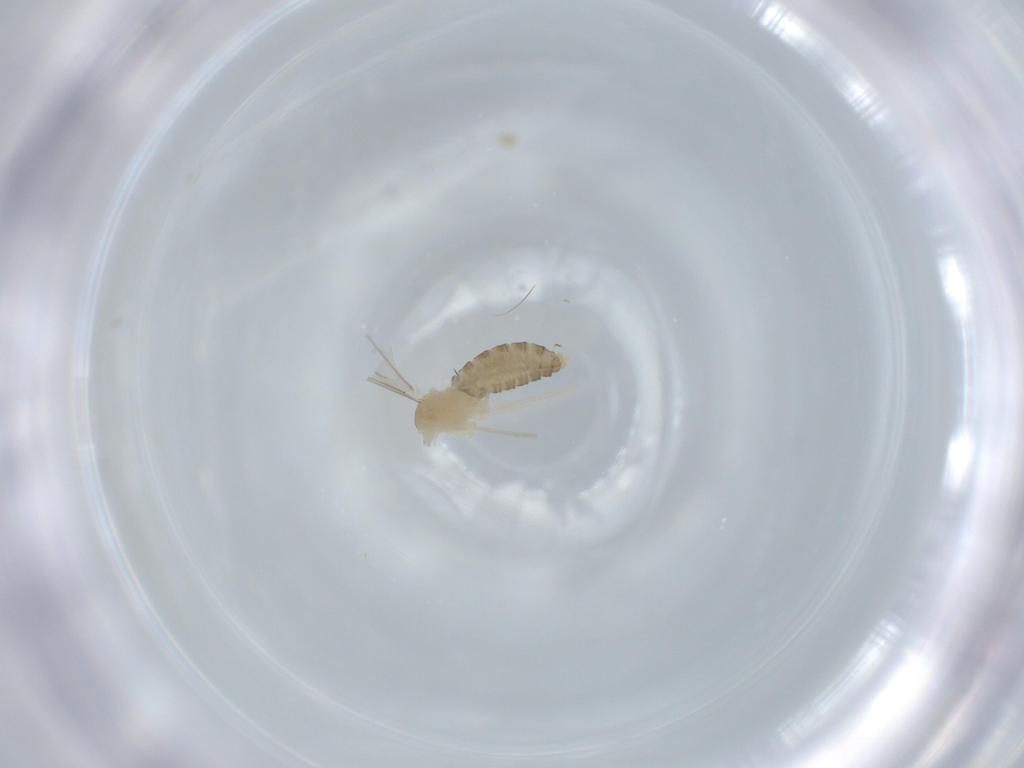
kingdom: Animalia
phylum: Arthropoda
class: Insecta
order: Diptera
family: Cecidomyiidae
